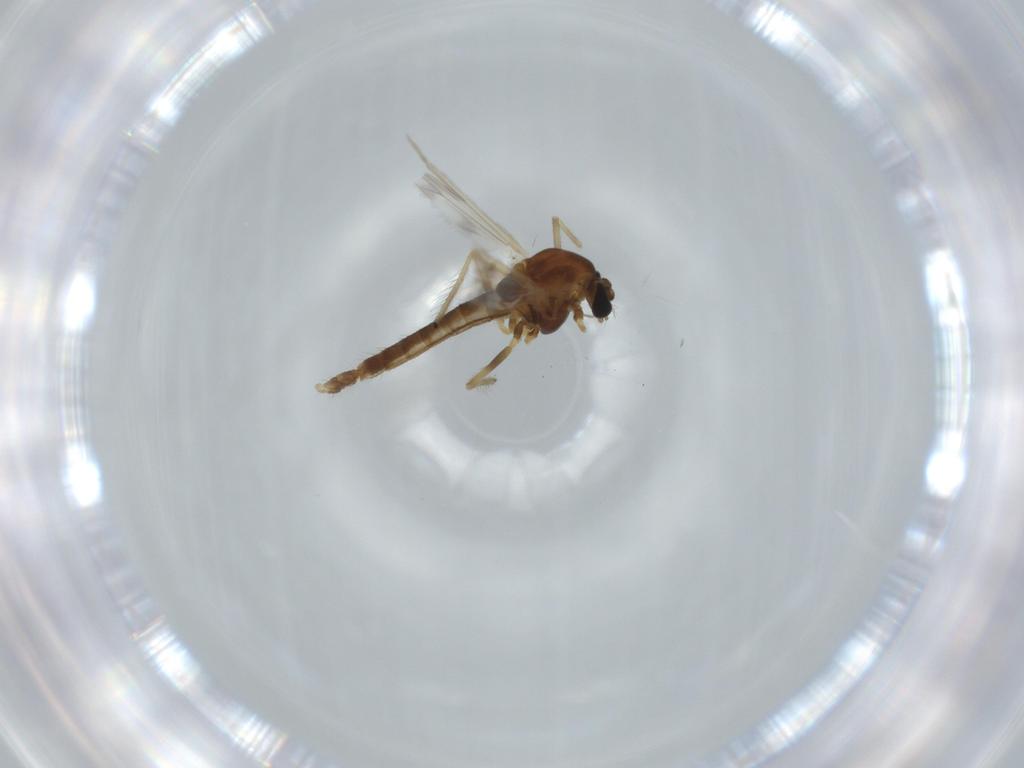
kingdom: Animalia
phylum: Arthropoda
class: Insecta
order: Diptera
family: Chironomidae
